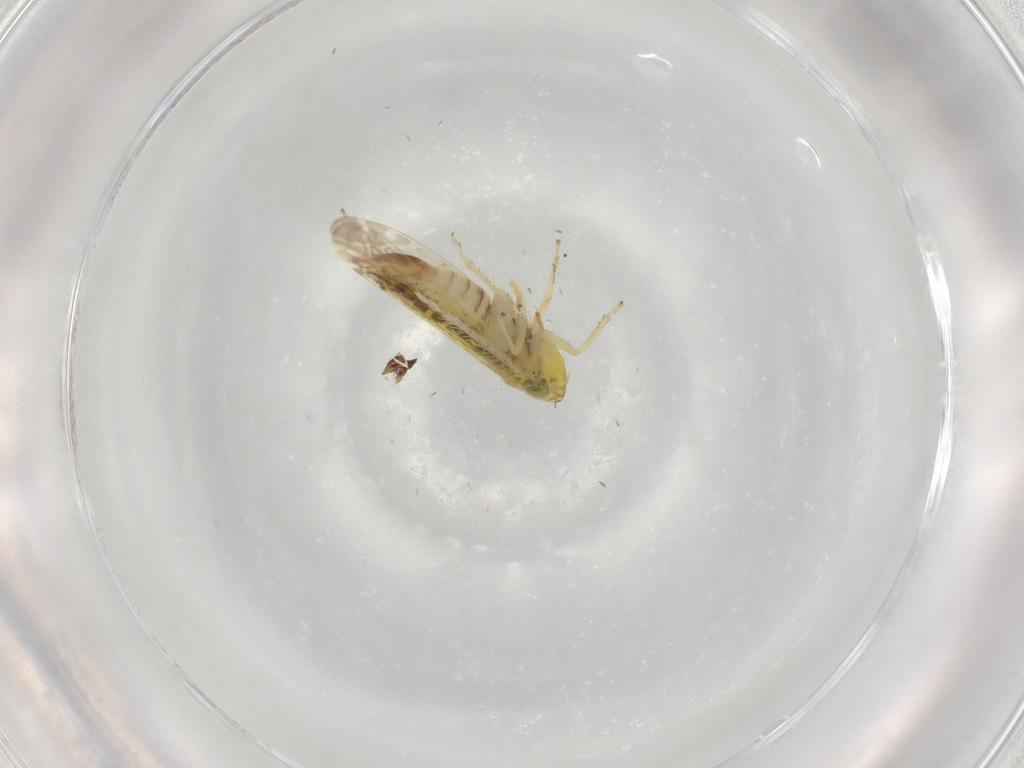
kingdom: Animalia
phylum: Arthropoda
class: Insecta
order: Hemiptera
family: Cicadellidae
